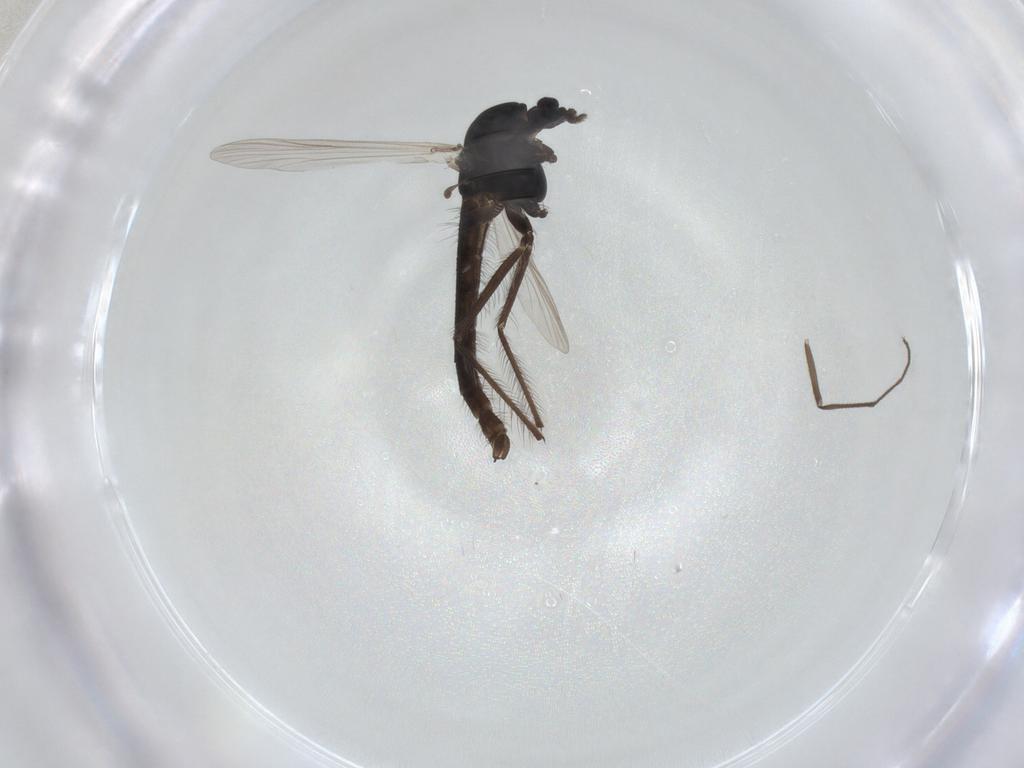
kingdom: Animalia
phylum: Arthropoda
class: Insecta
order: Diptera
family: Chironomidae
